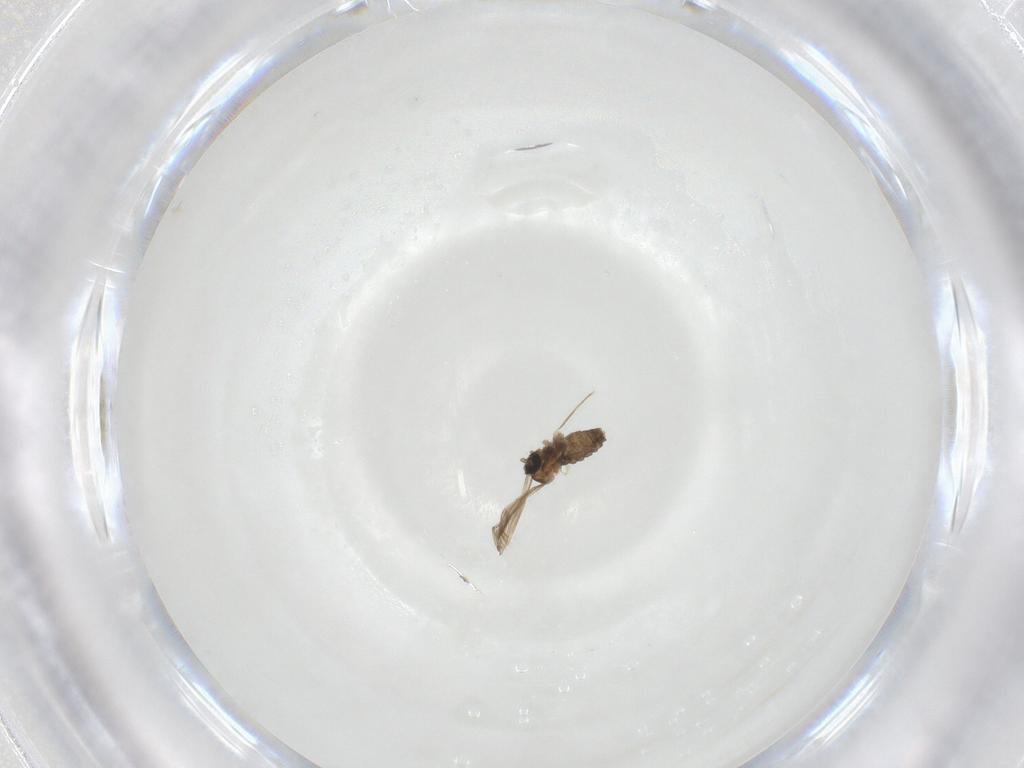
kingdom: Animalia
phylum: Arthropoda
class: Insecta
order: Diptera
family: Cecidomyiidae
